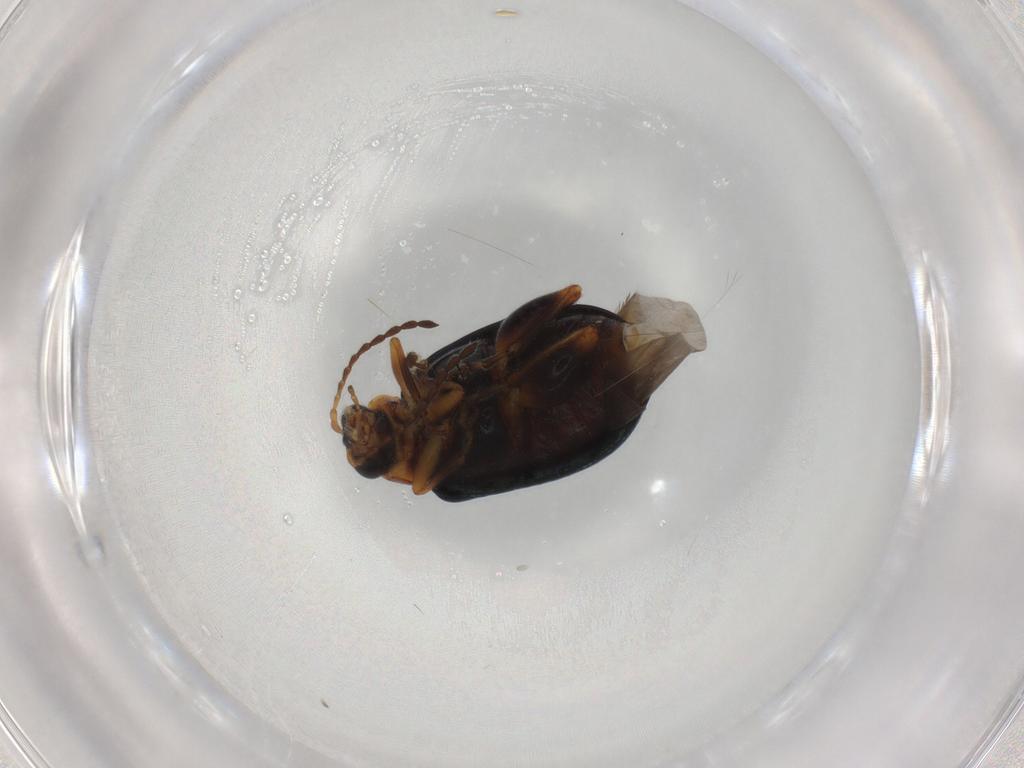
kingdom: Animalia
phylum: Arthropoda
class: Insecta
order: Coleoptera
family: Chrysomelidae
